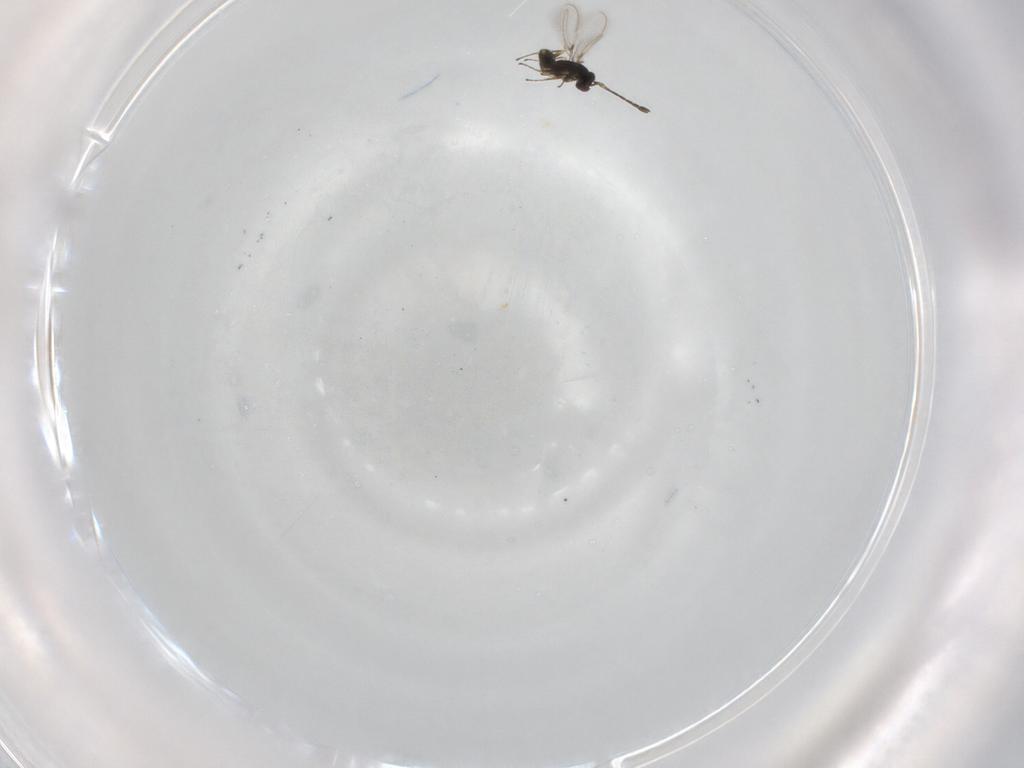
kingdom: Animalia
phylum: Arthropoda
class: Insecta
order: Hymenoptera
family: Mymaridae
